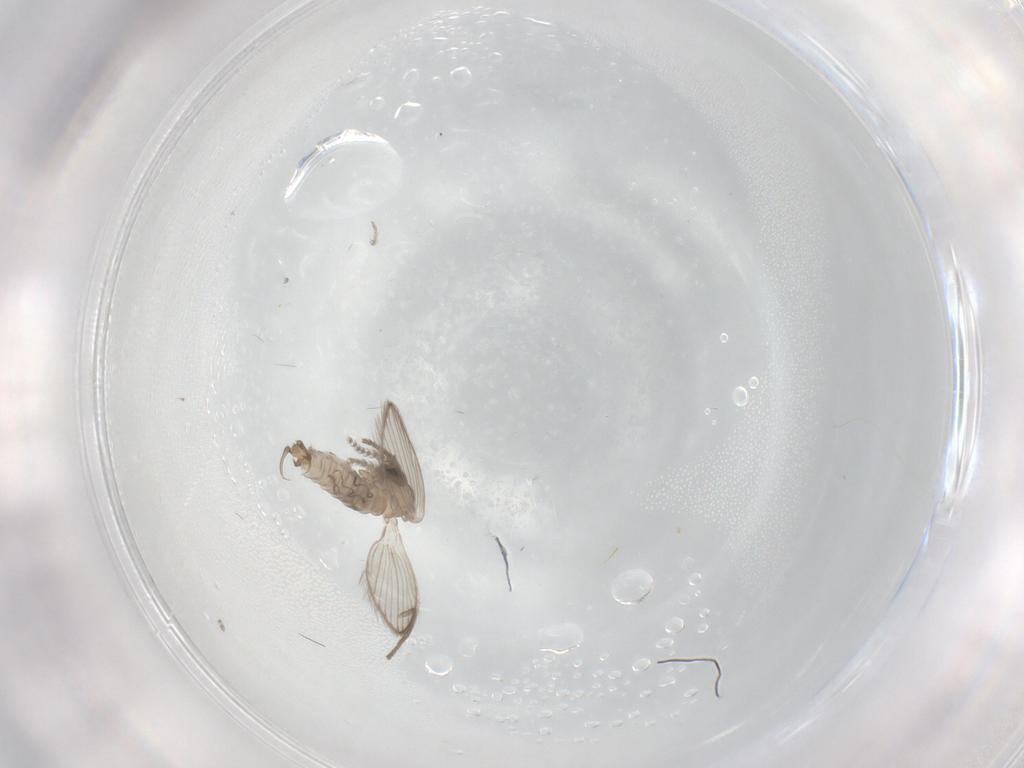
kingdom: Animalia
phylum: Arthropoda
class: Insecta
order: Diptera
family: Psychodidae
